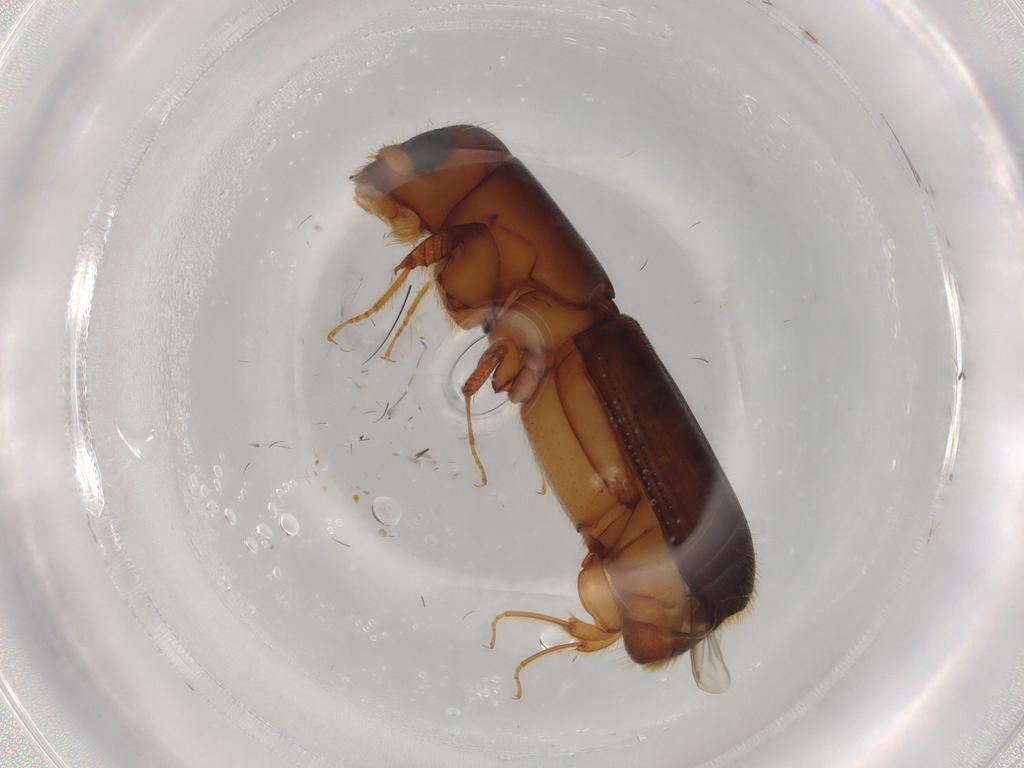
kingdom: Animalia
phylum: Arthropoda
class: Insecta
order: Coleoptera
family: Curculionidae
